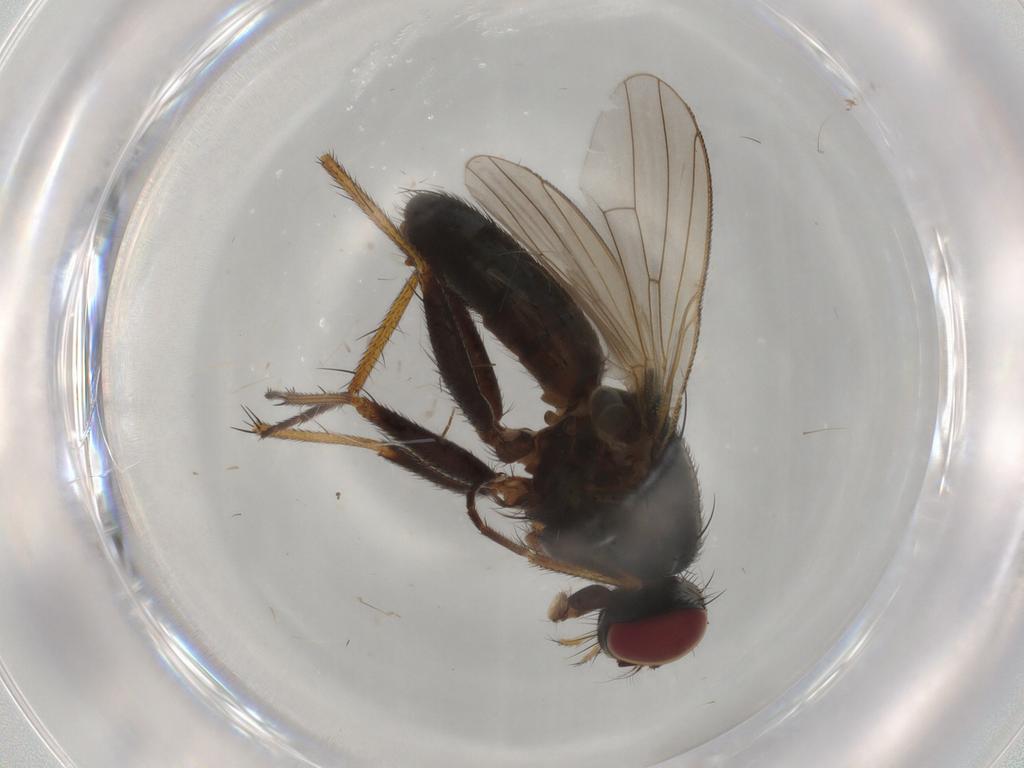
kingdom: Animalia
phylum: Arthropoda
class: Insecta
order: Diptera
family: Muscidae
